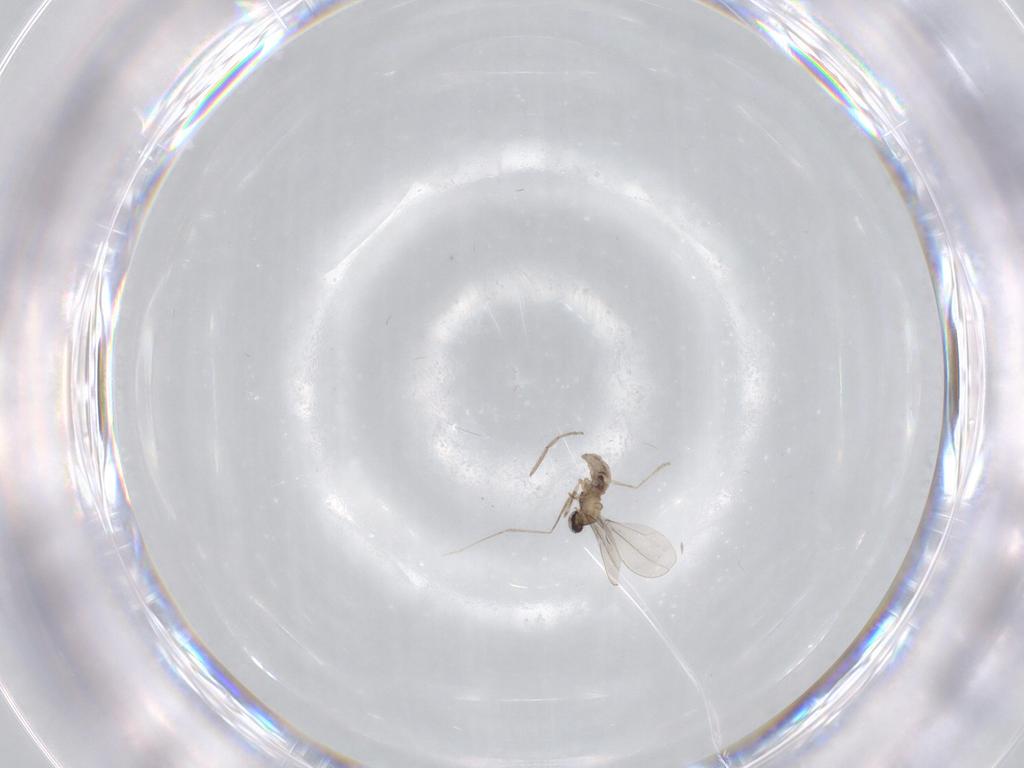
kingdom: Animalia
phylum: Arthropoda
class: Insecta
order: Diptera
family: Chironomidae
